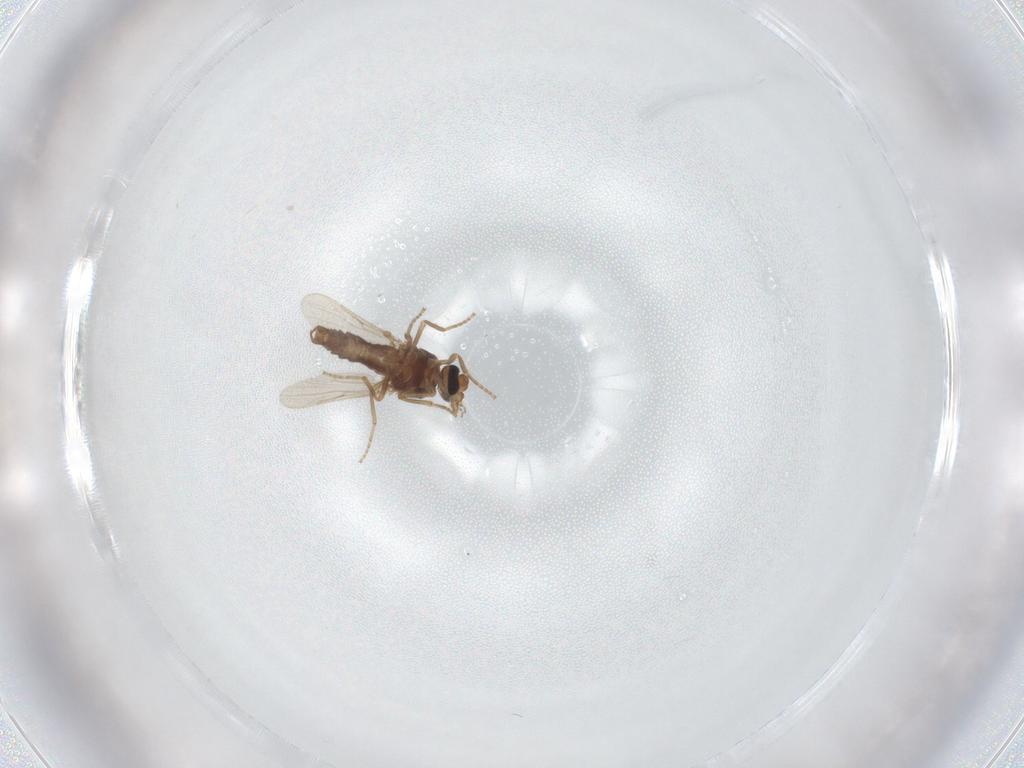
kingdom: Animalia
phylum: Arthropoda
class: Insecta
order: Diptera
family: Ceratopogonidae
